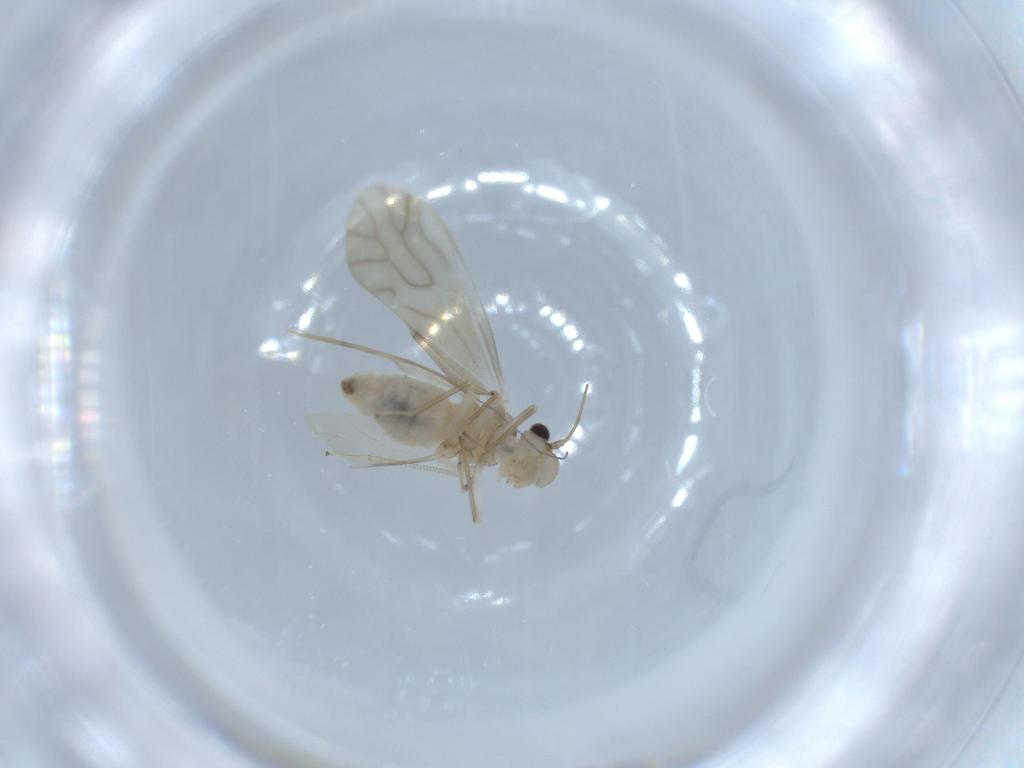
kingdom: Animalia
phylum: Arthropoda
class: Insecta
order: Psocodea
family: Caeciliusidae
